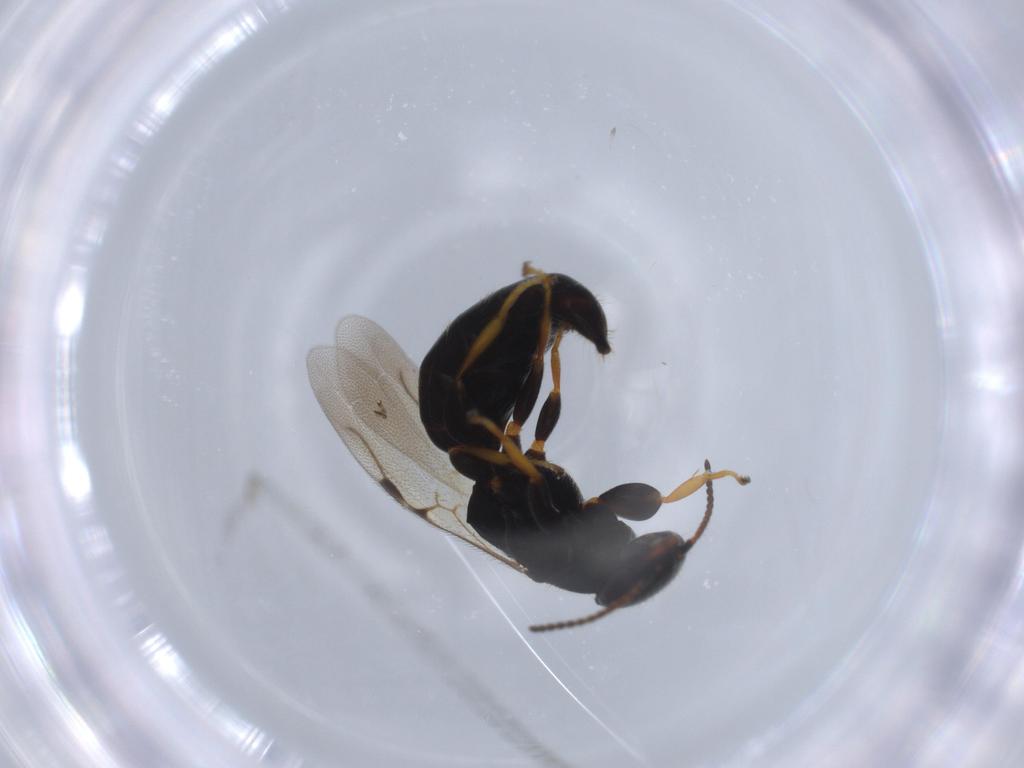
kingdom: Animalia
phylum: Arthropoda
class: Insecta
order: Hymenoptera
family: Bethylidae
